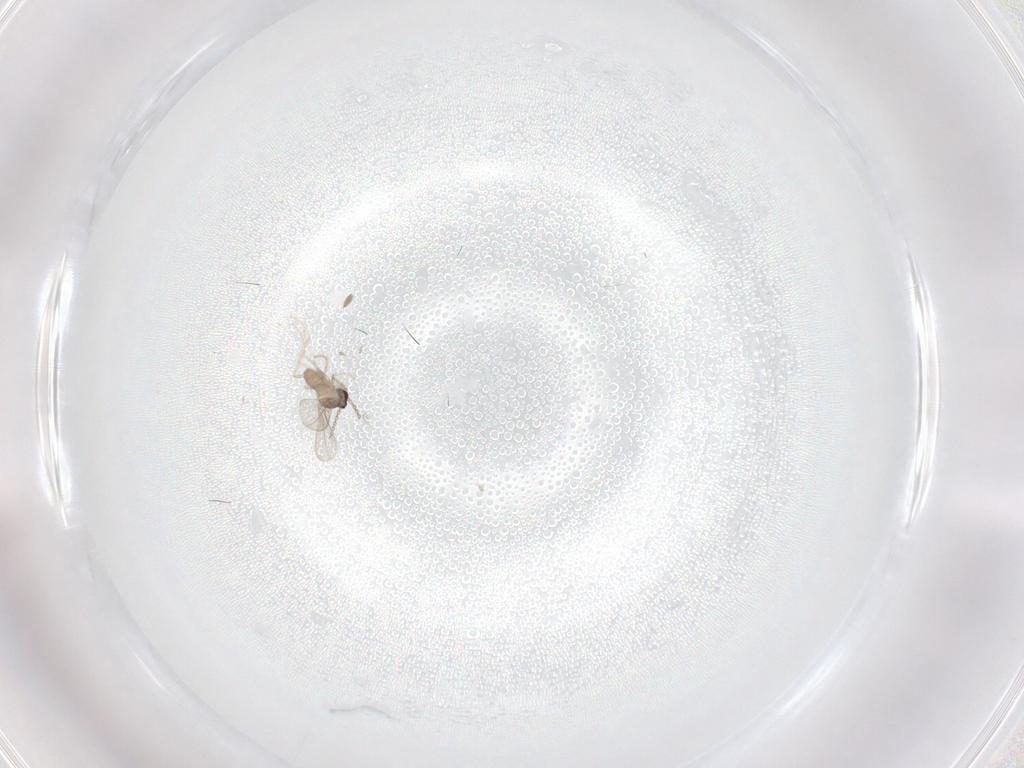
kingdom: Animalia
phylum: Arthropoda
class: Insecta
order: Diptera
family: Cecidomyiidae
